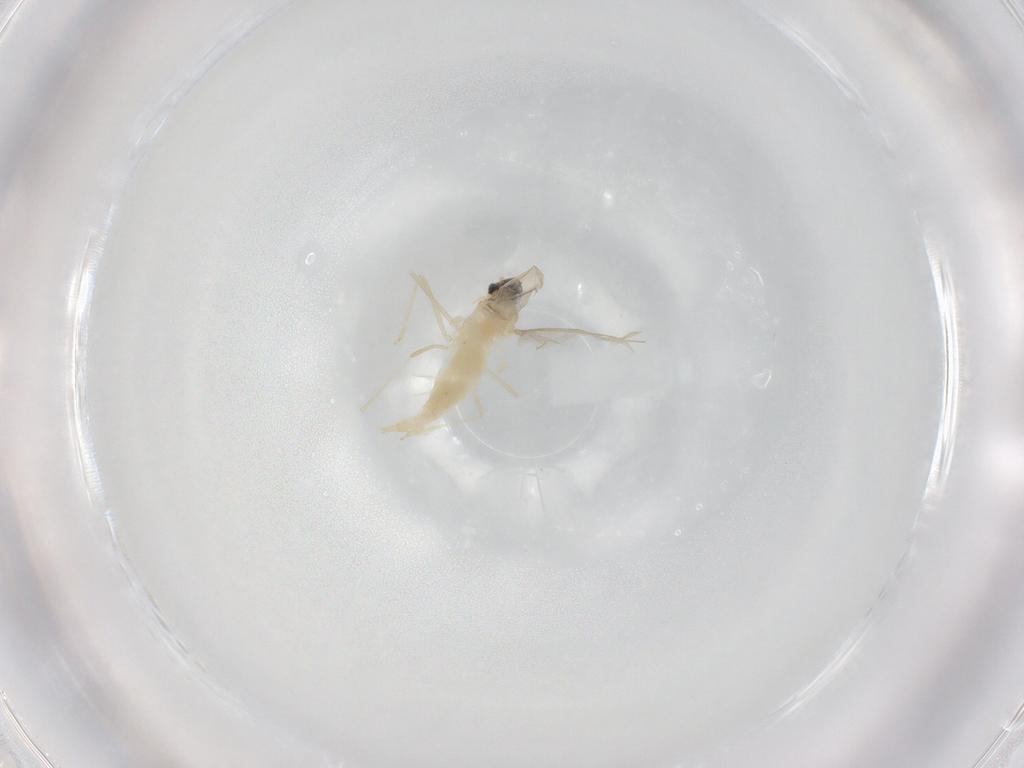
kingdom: Animalia
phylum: Arthropoda
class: Insecta
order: Diptera
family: Cecidomyiidae
